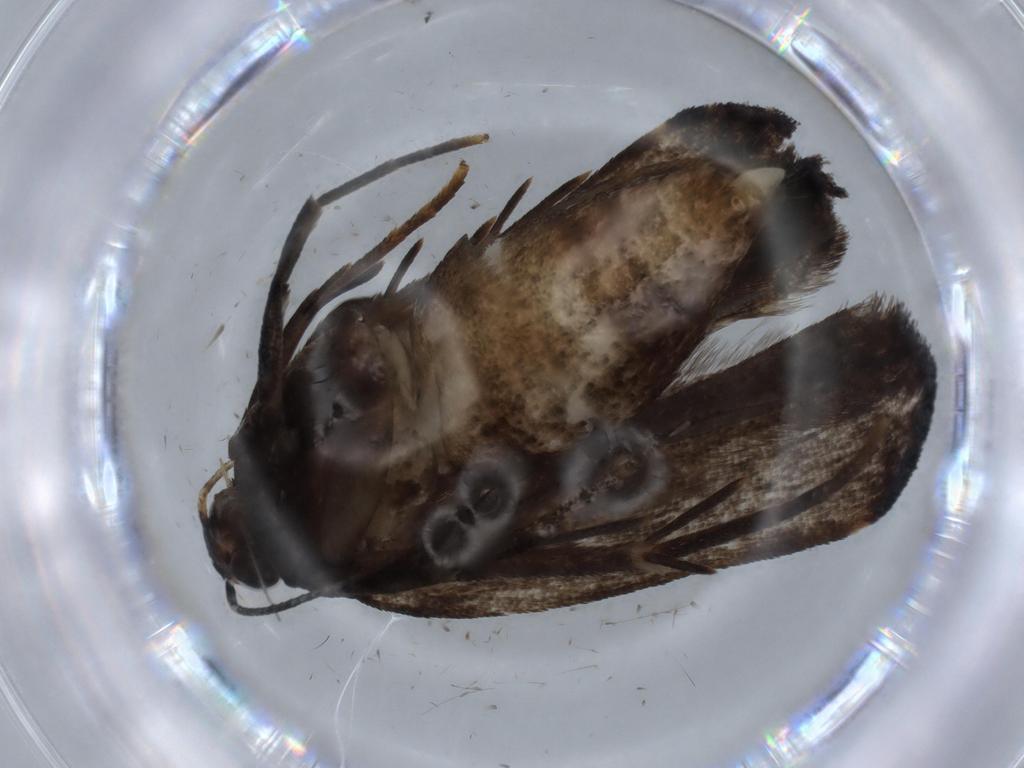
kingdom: Animalia
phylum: Arthropoda
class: Insecta
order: Lepidoptera
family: Gelechiidae
